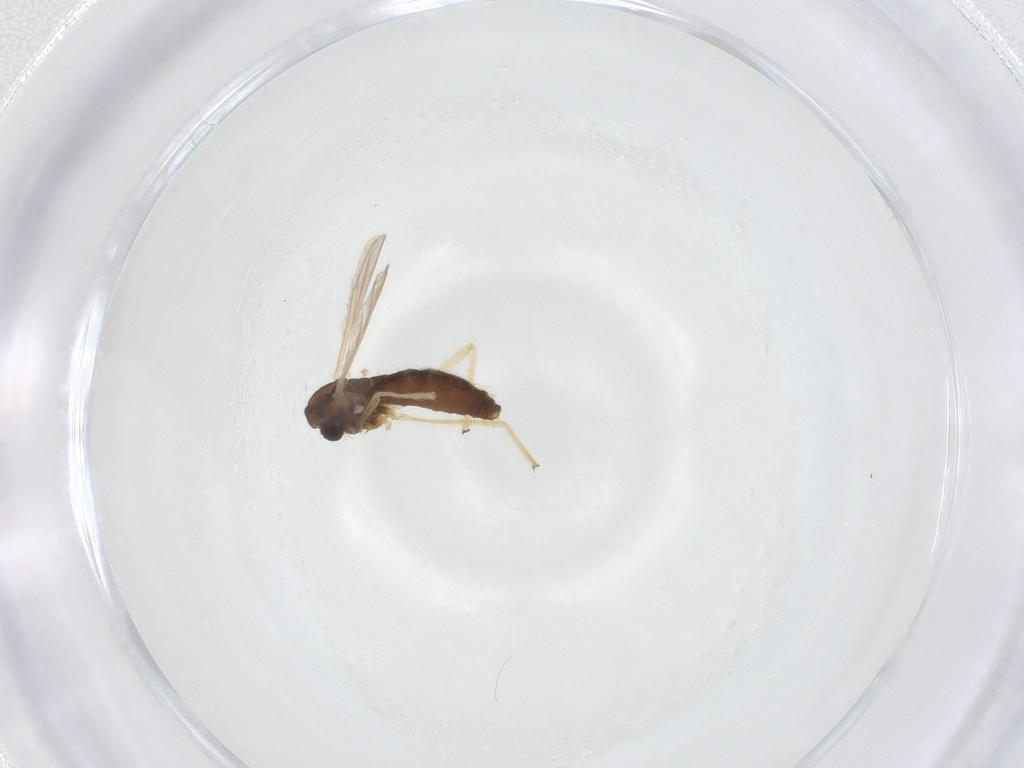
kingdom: Animalia
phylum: Arthropoda
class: Insecta
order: Diptera
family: Chironomidae
